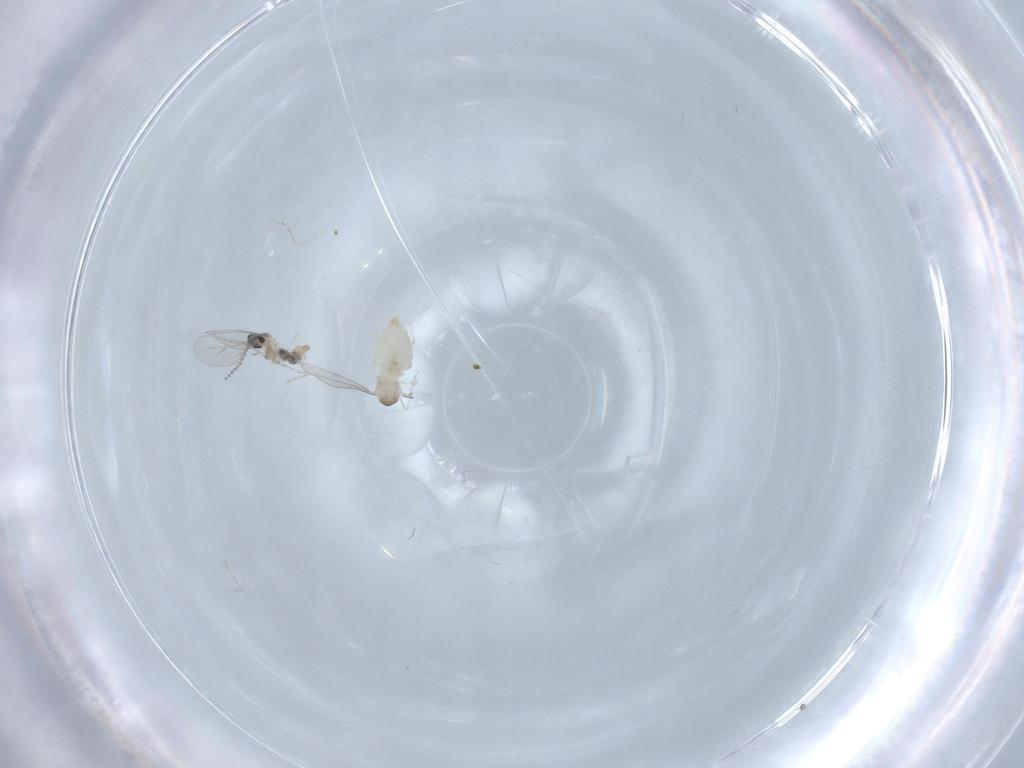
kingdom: Animalia
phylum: Arthropoda
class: Insecta
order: Diptera
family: Cecidomyiidae
